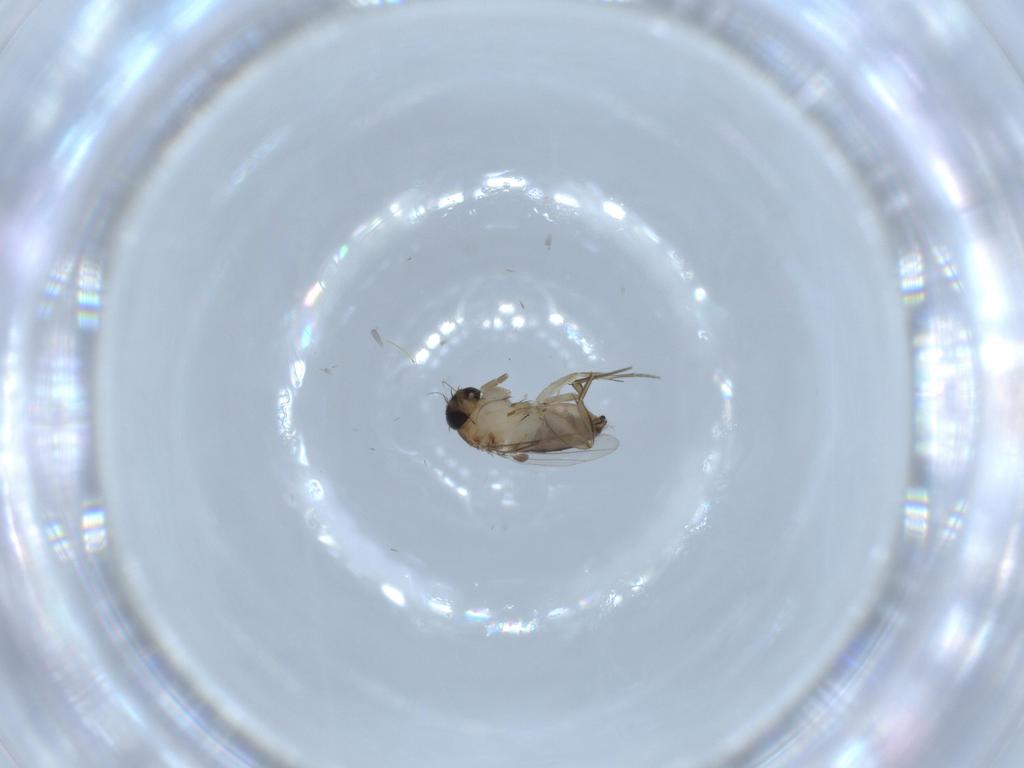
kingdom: Animalia
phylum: Arthropoda
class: Insecta
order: Diptera
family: Phoridae
